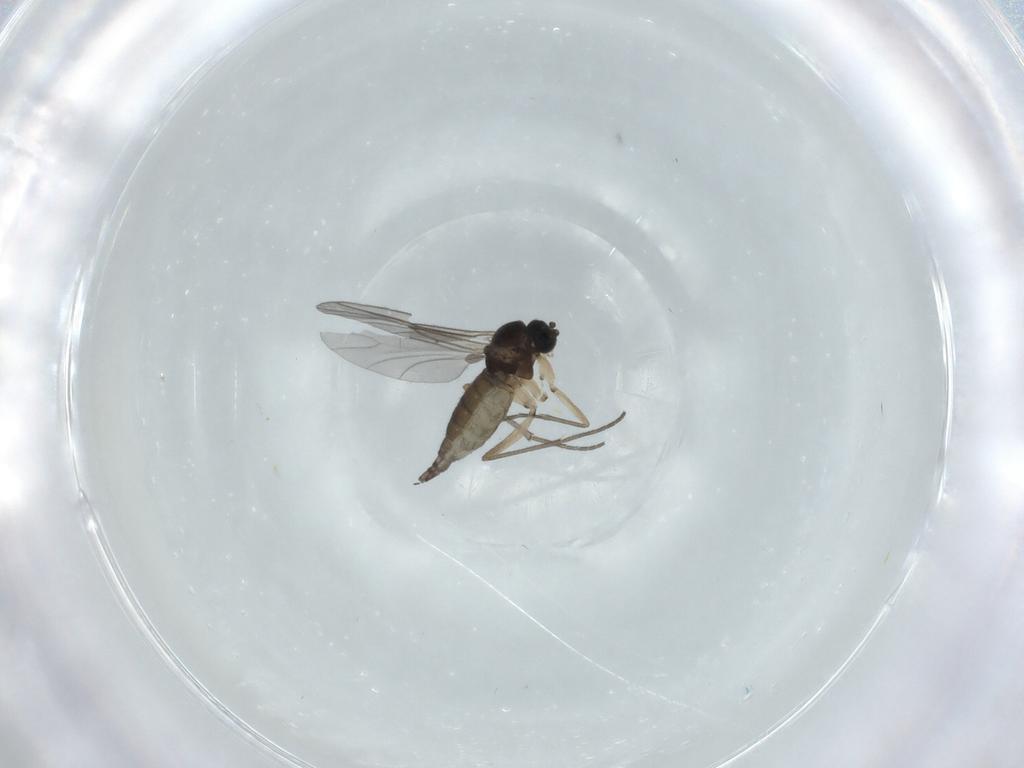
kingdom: Animalia
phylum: Arthropoda
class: Insecta
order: Diptera
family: Sciaridae
